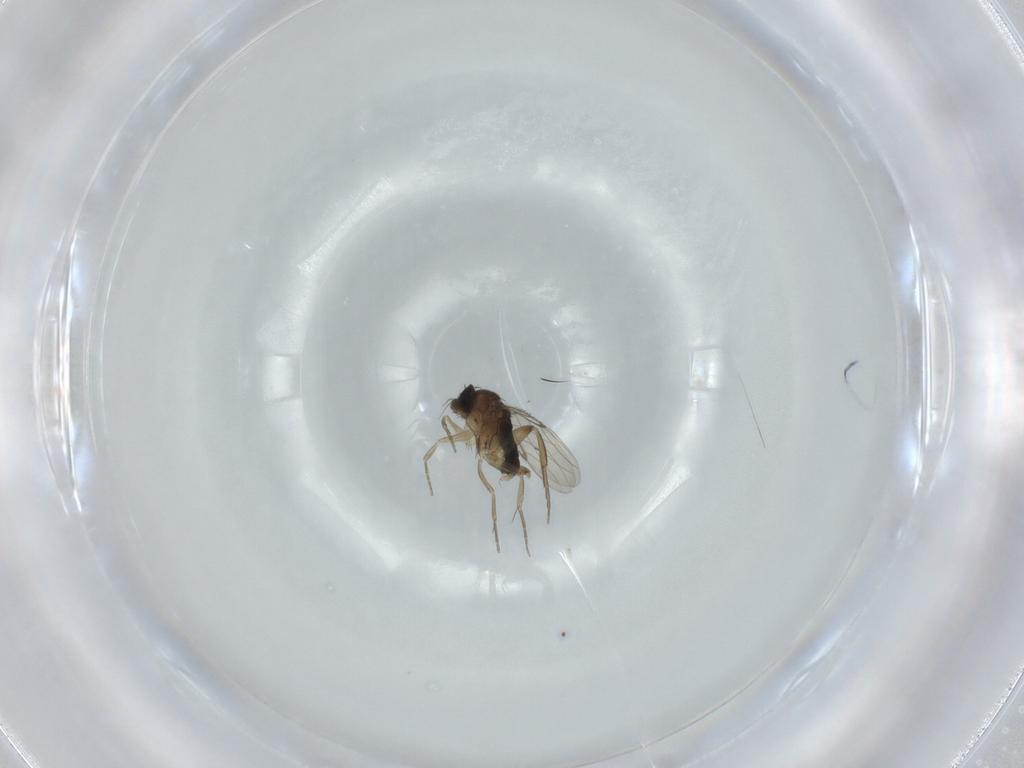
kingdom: Animalia
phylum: Arthropoda
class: Insecta
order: Diptera
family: Phoridae
